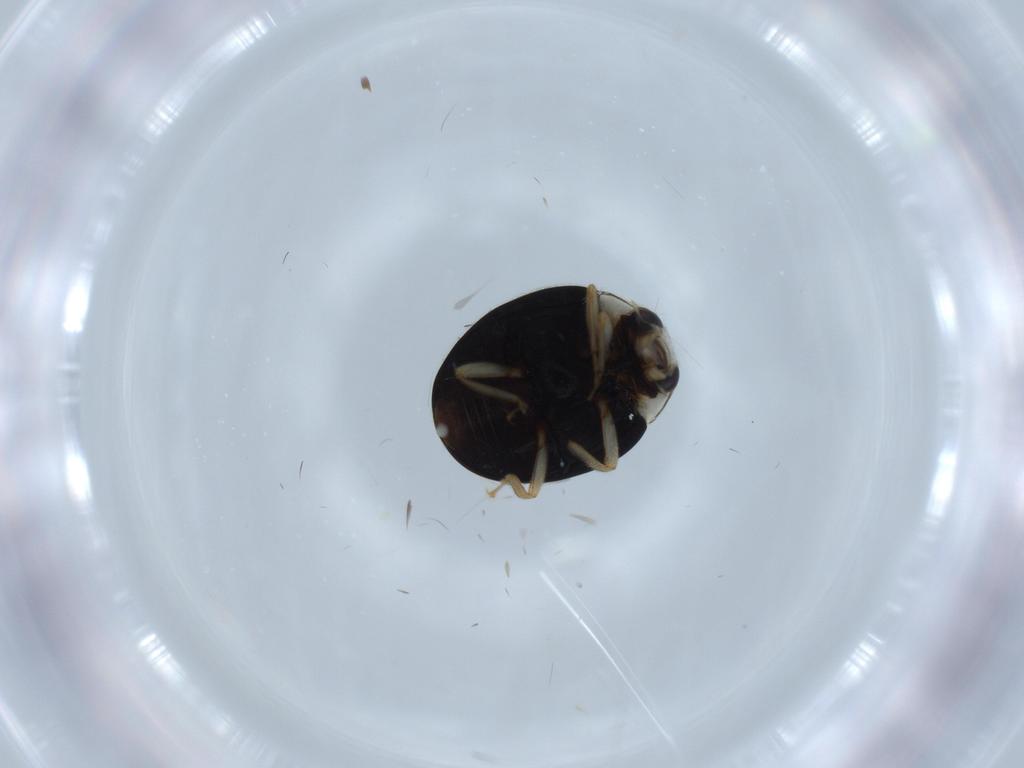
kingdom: Animalia
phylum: Arthropoda
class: Insecta
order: Coleoptera
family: Coccinellidae
